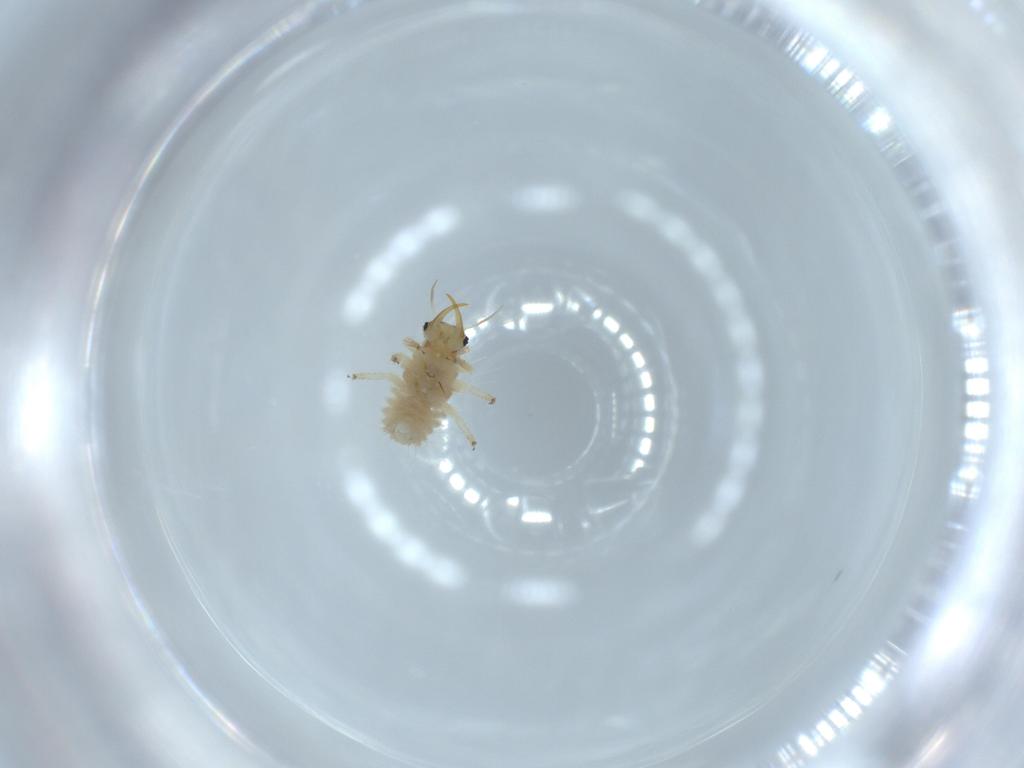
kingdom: Animalia
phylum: Arthropoda
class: Insecta
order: Neuroptera
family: Chrysopidae
